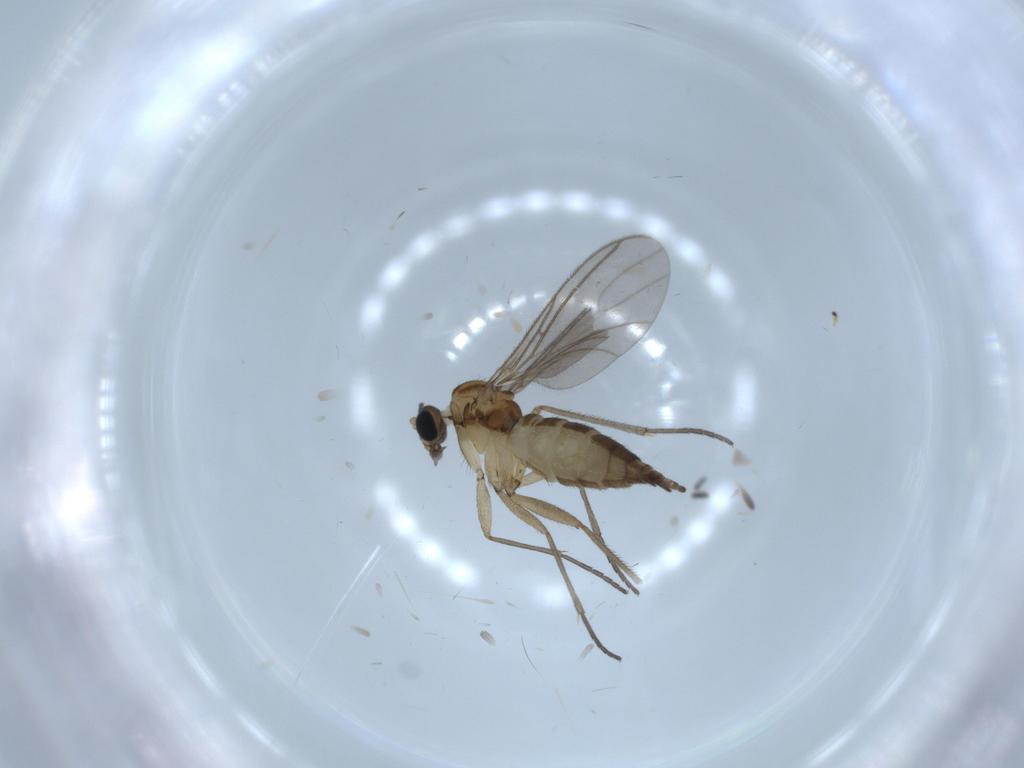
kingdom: Animalia
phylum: Arthropoda
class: Insecta
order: Diptera
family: Sciaridae
